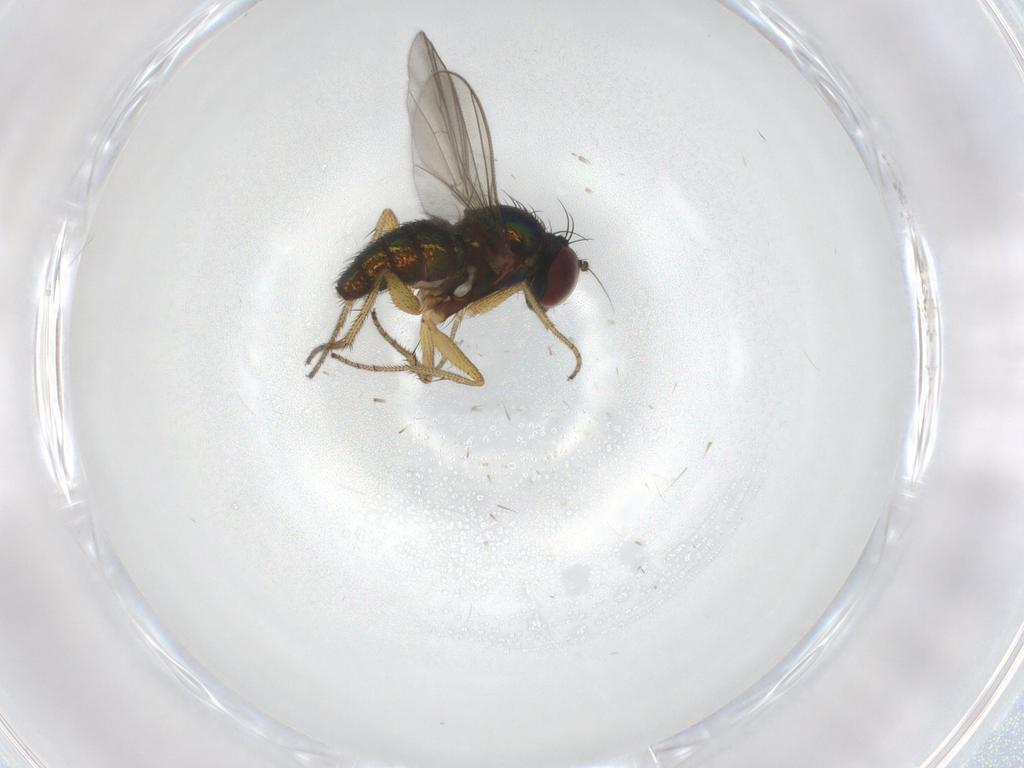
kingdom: Animalia
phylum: Arthropoda
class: Insecta
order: Diptera
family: Dolichopodidae
